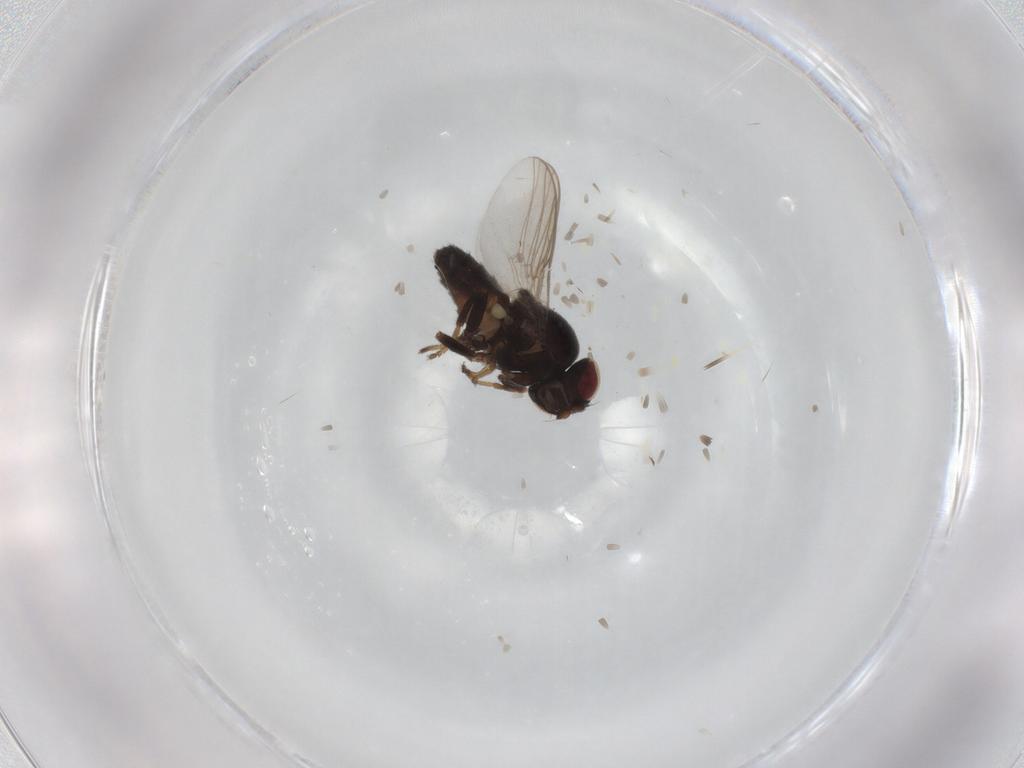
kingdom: Animalia
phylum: Arthropoda
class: Insecta
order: Diptera
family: Chloropidae
